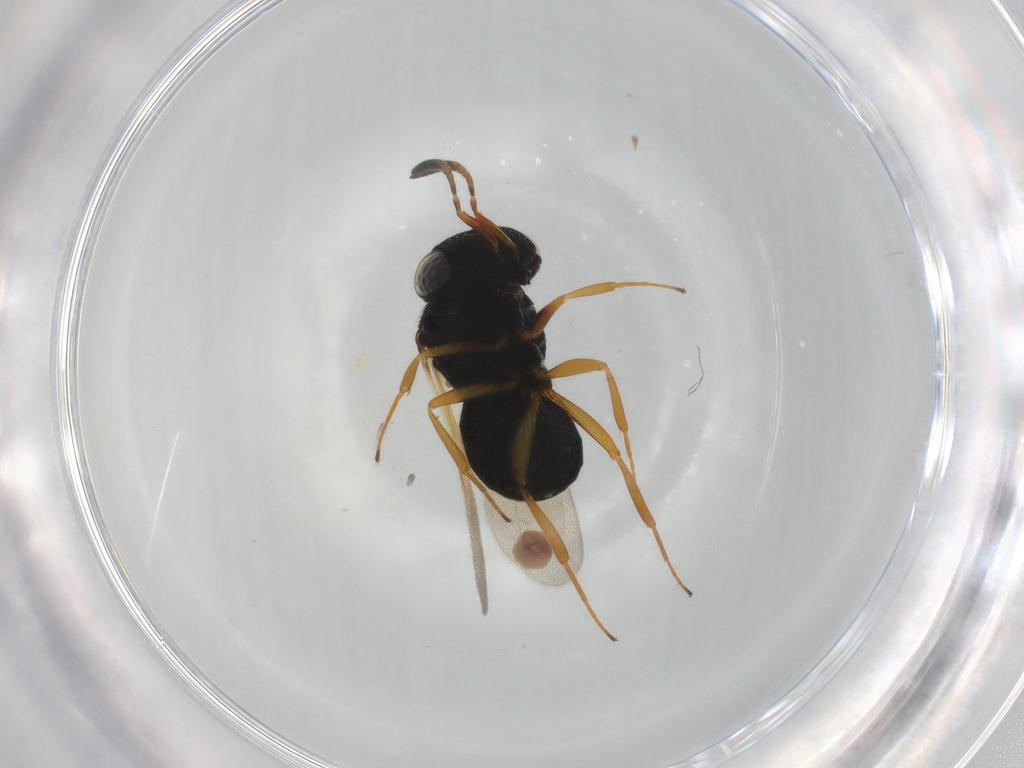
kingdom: Animalia
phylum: Arthropoda
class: Insecta
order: Hymenoptera
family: Scelionidae
